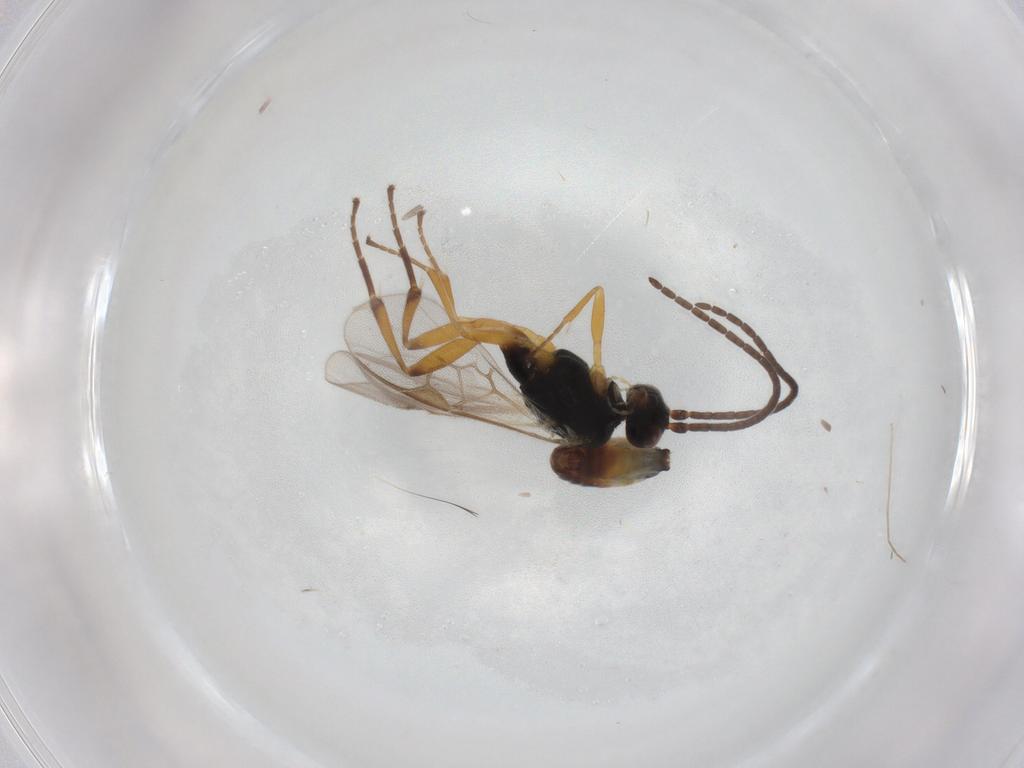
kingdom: Animalia
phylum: Arthropoda
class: Insecta
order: Hymenoptera
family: Braconidae
